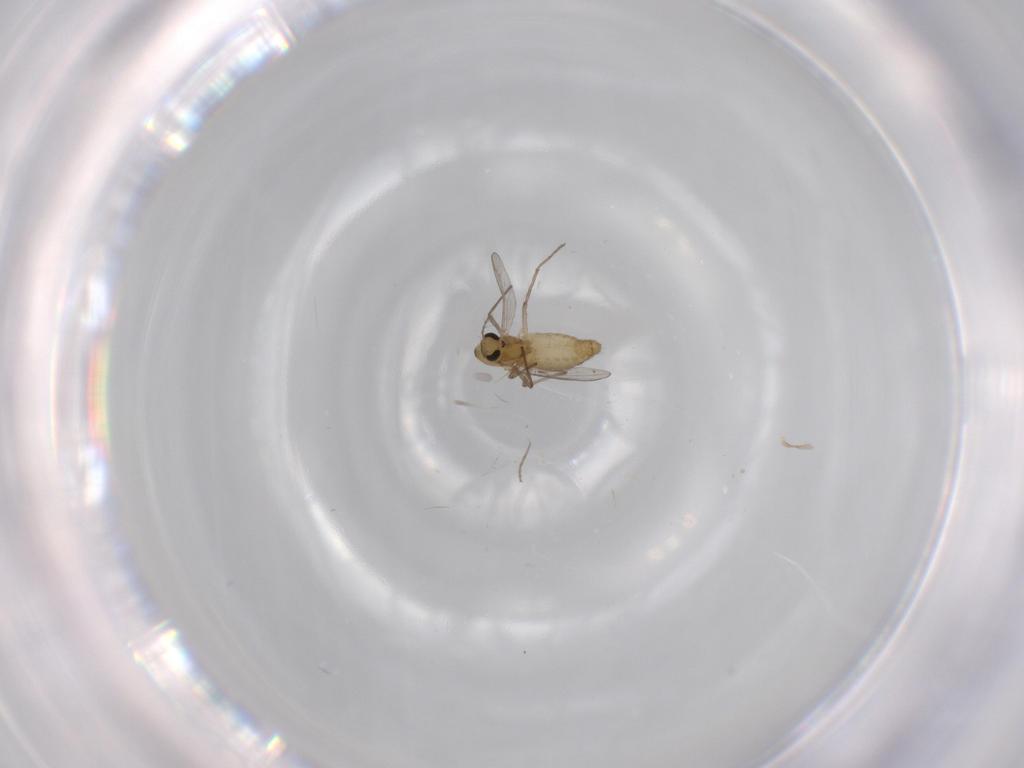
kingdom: Animalia
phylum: Arthropoda
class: Insecta
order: Diptera
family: Chironomidae
